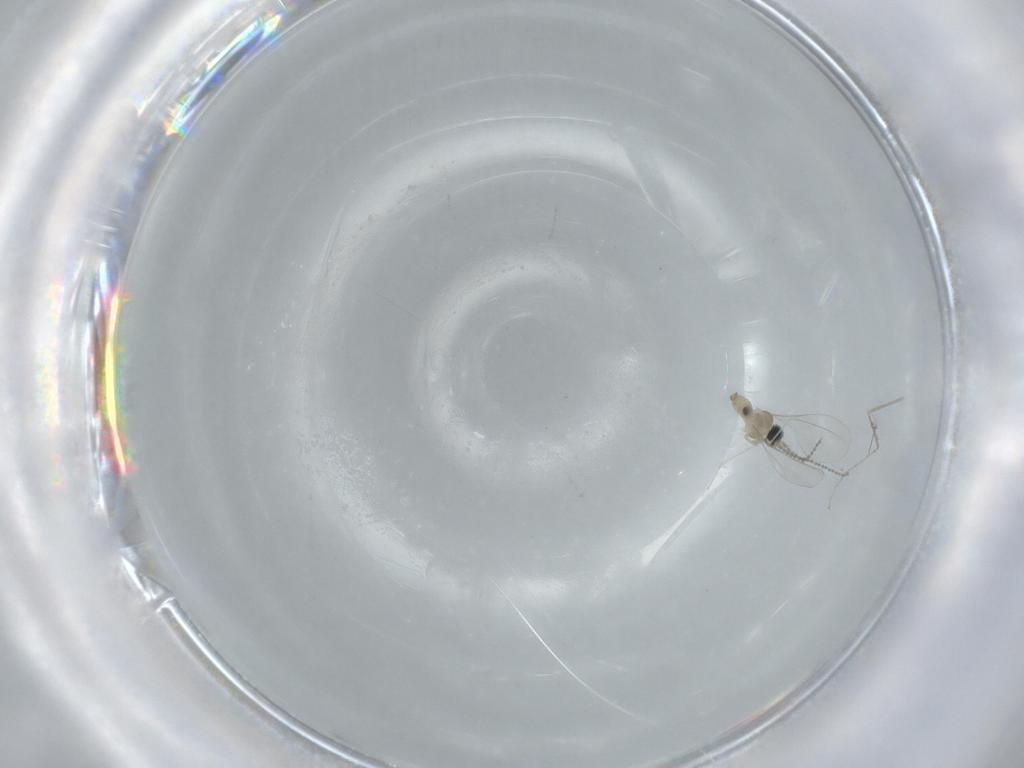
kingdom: Animalia
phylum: Arthropoda
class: Insecta
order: Diptera
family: Cecidomyiidae
